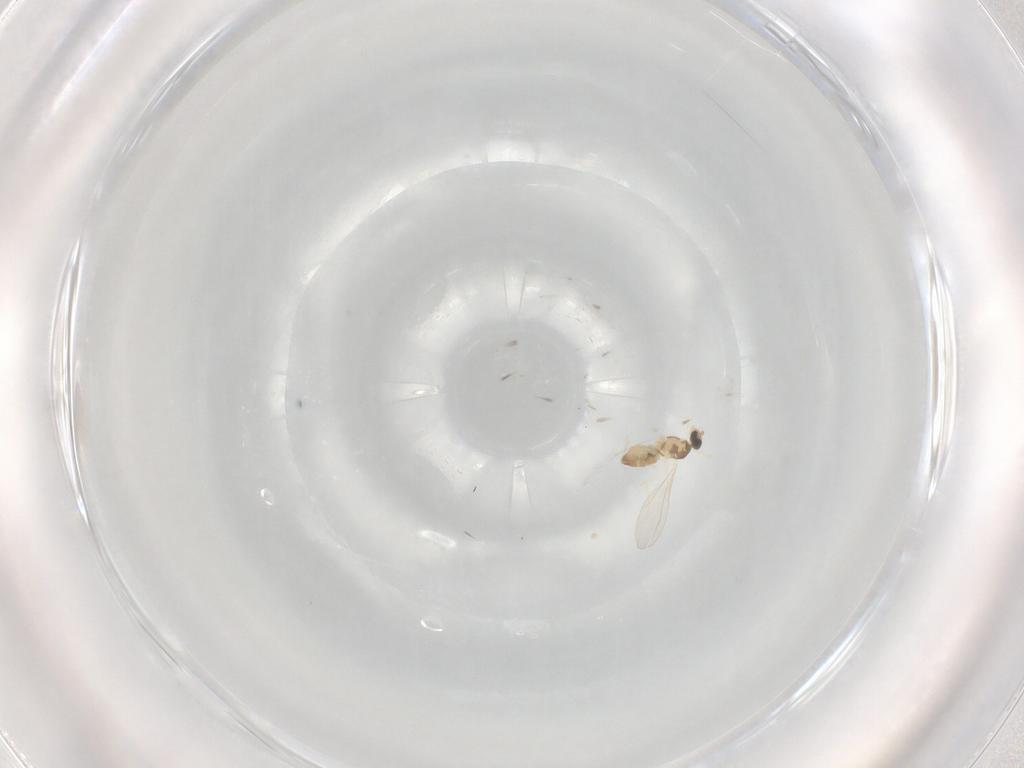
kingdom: Animalia
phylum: Arthropoda
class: Insecta
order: Diptera
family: Cecidomyiidae
